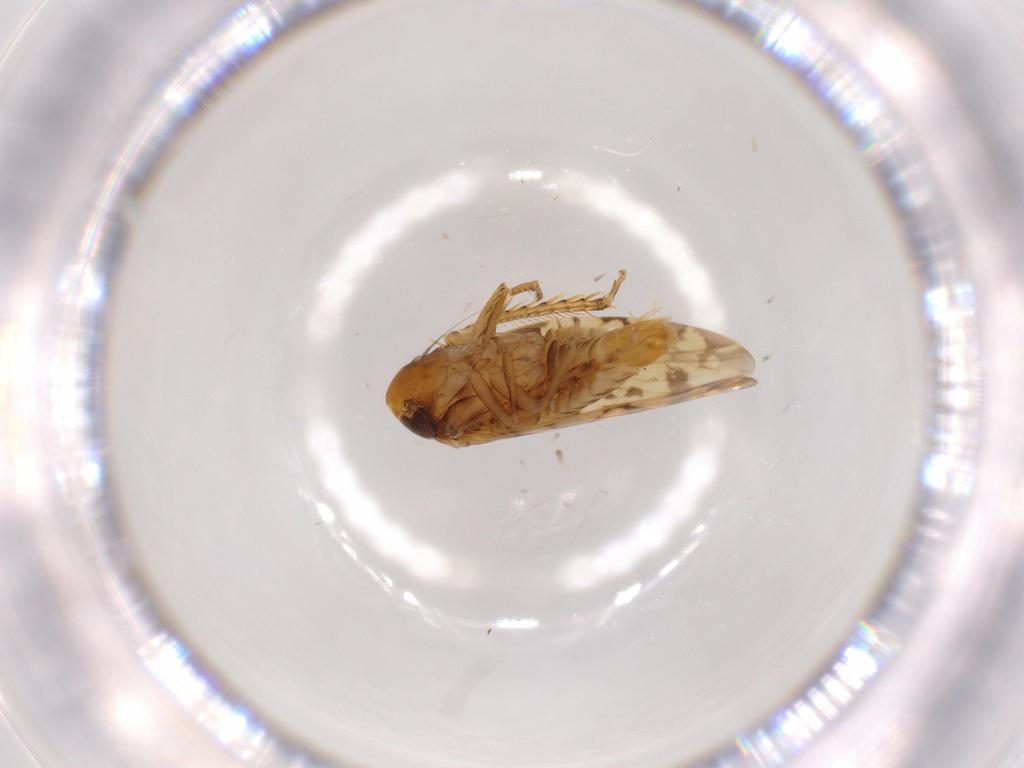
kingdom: Animalia
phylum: Arthropoda
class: Insecta
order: Hemiptera
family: Cicadellidae
